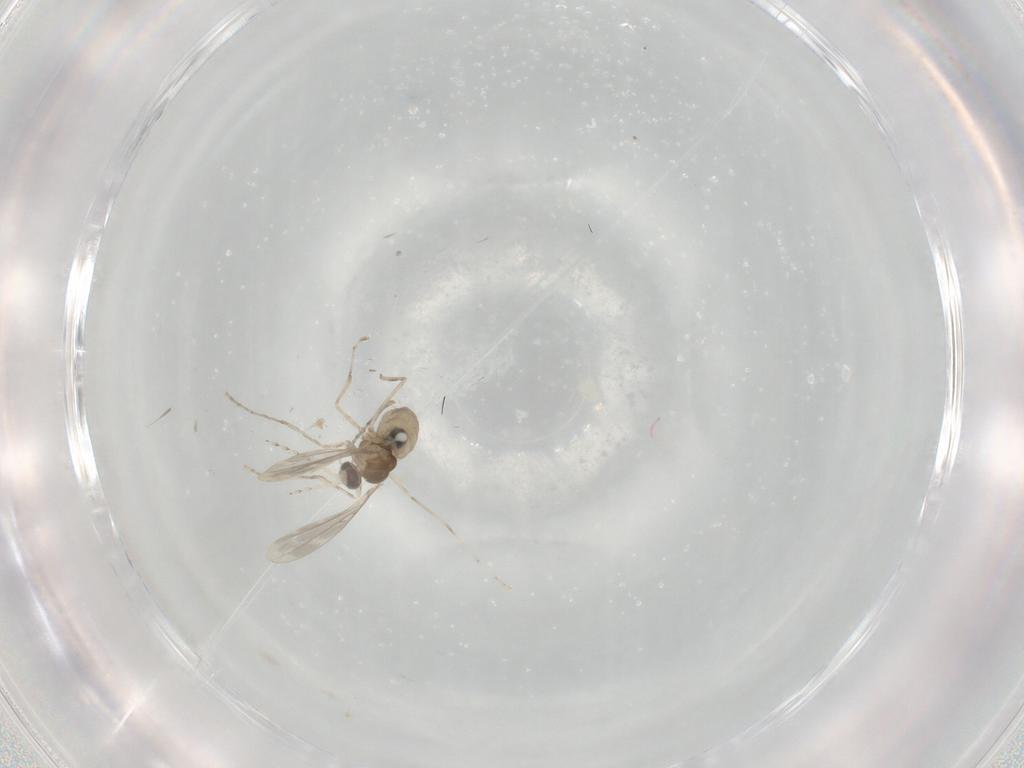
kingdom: Animalia
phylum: Arthropoda
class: Insecta
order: Diptera
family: Cecidomyiidae
